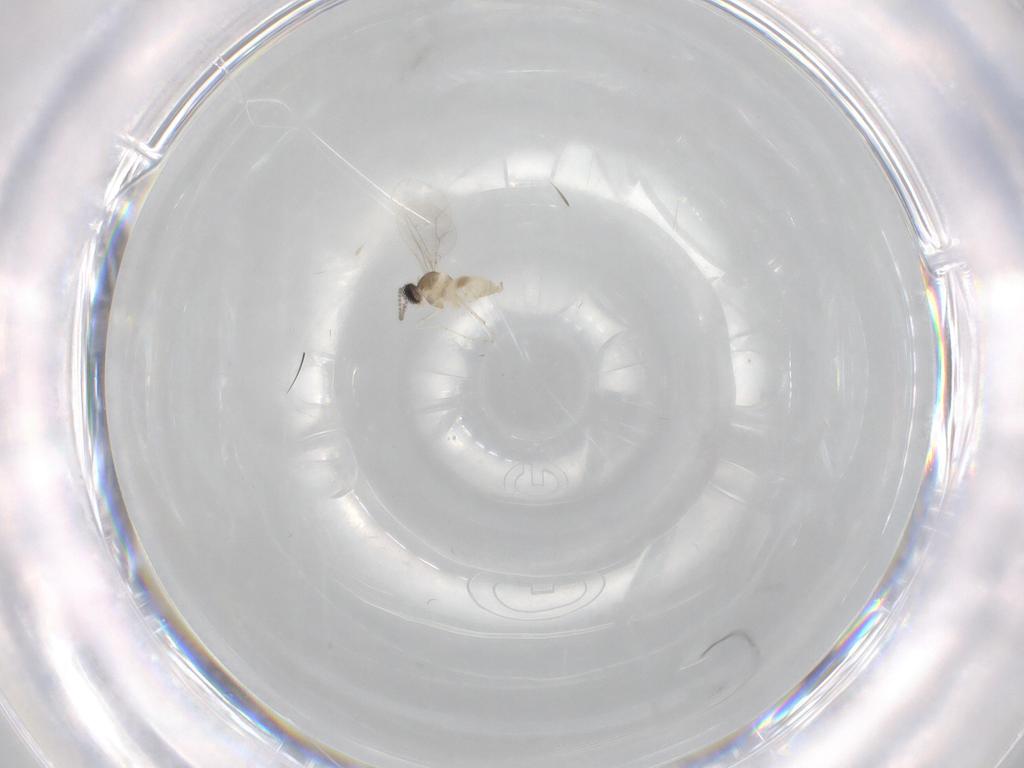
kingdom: Animalia
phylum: Arthropoda
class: Insecta
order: Diptera
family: Cecidomyiidae
